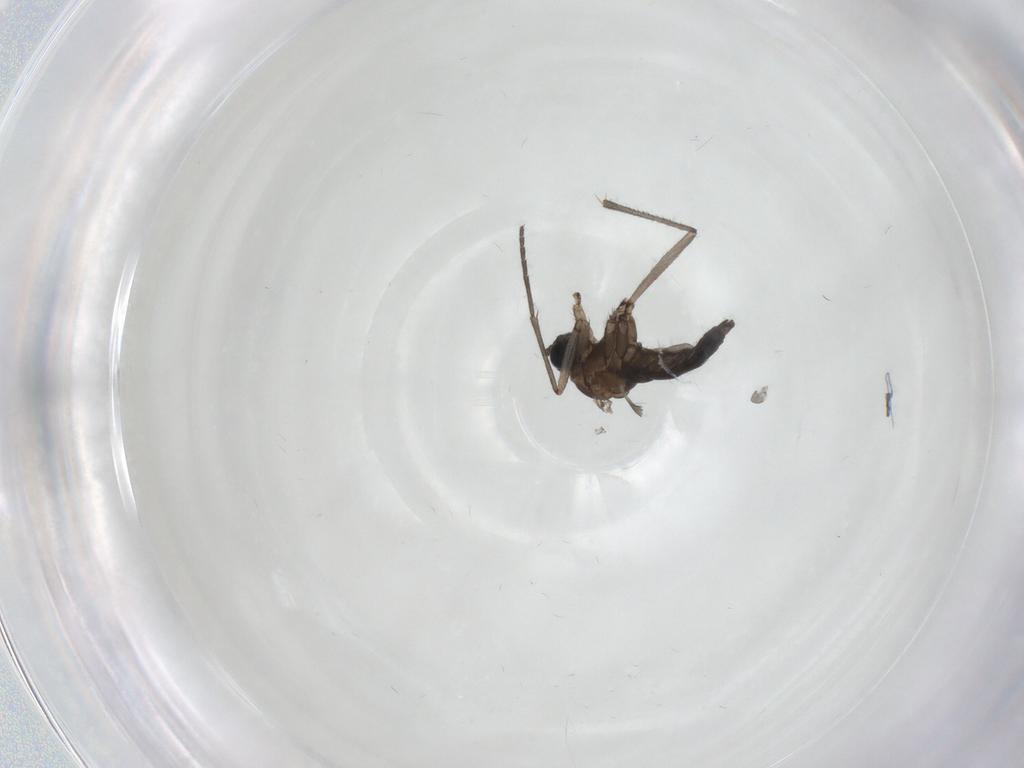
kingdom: Animalia
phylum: Arthropoda
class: Insecta
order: Diptera
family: Sciaridae
